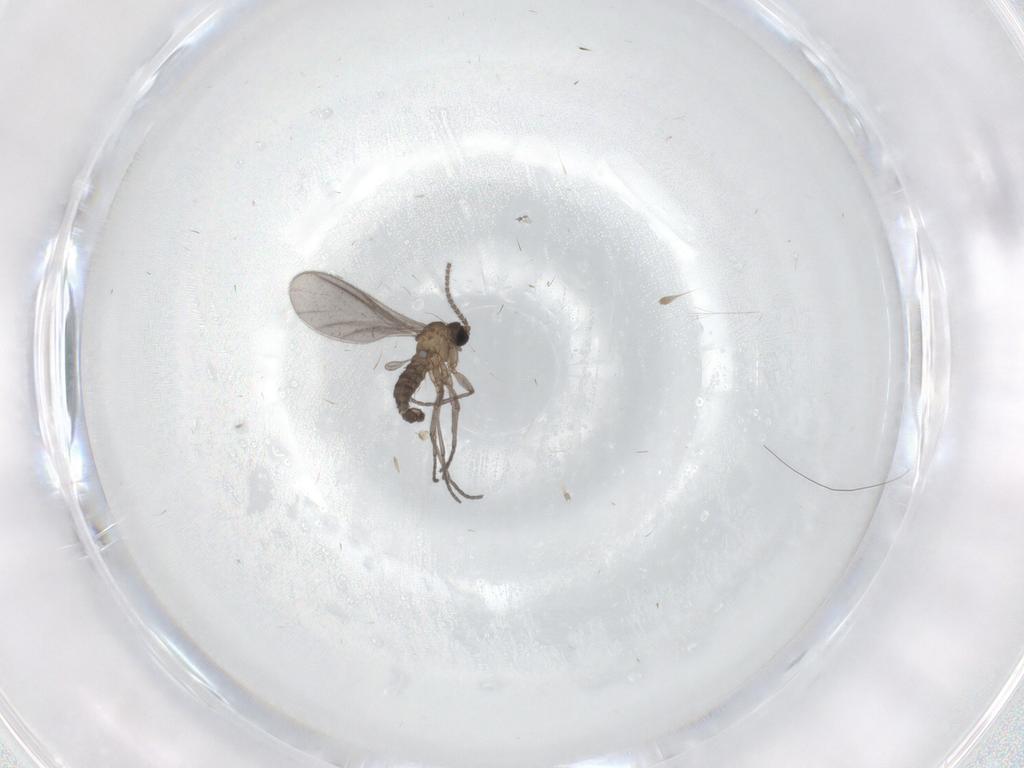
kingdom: Animalia
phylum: Arthropoda
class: Insecta
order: Diptera
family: Sciaridae
